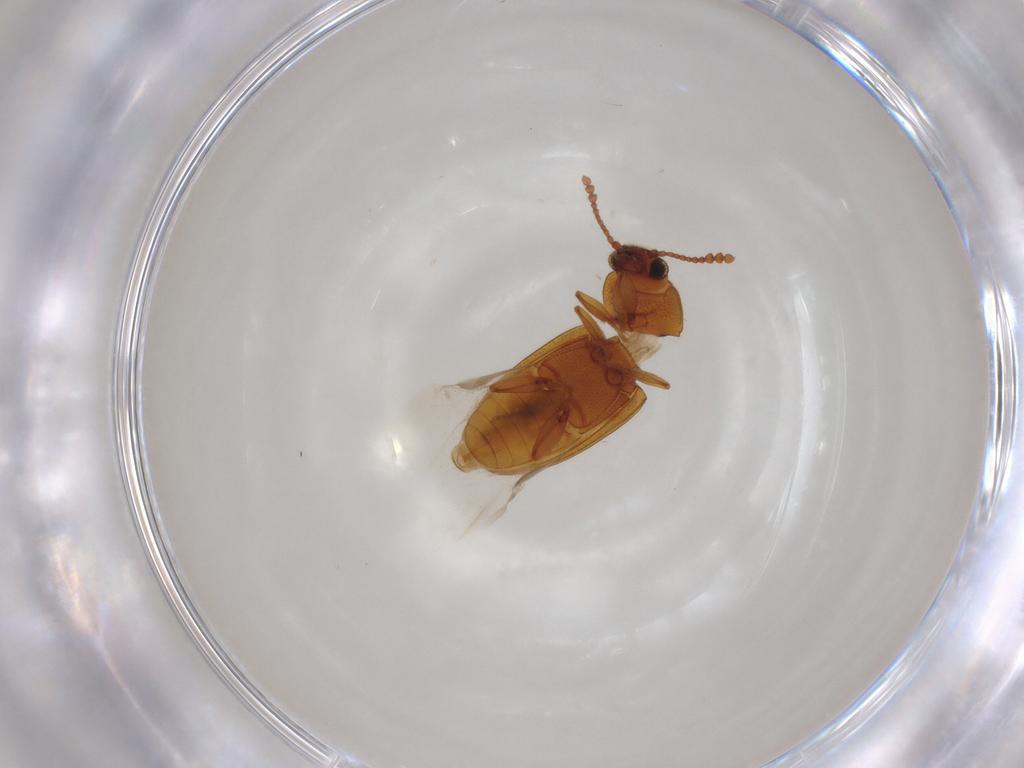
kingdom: Animalia
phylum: Arthropoda
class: Insecta
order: Coleoptera
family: Erotylidae
